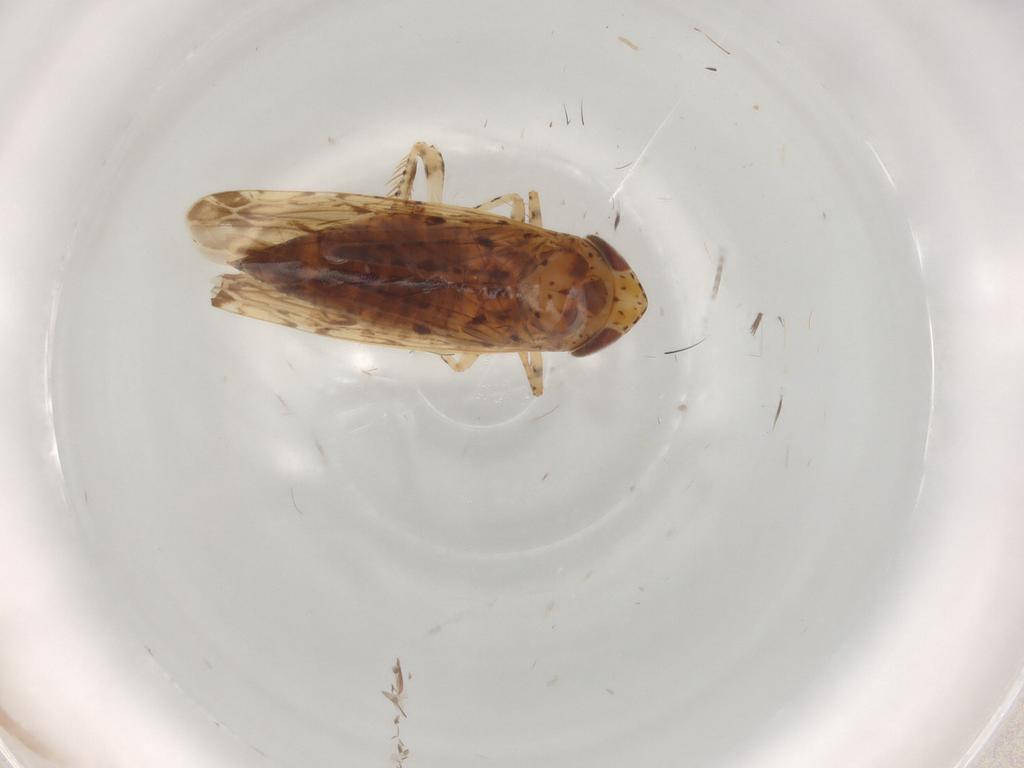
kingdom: Animalia
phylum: Arthropoda
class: Insecta
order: Hemiptera
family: Cicadellidae
